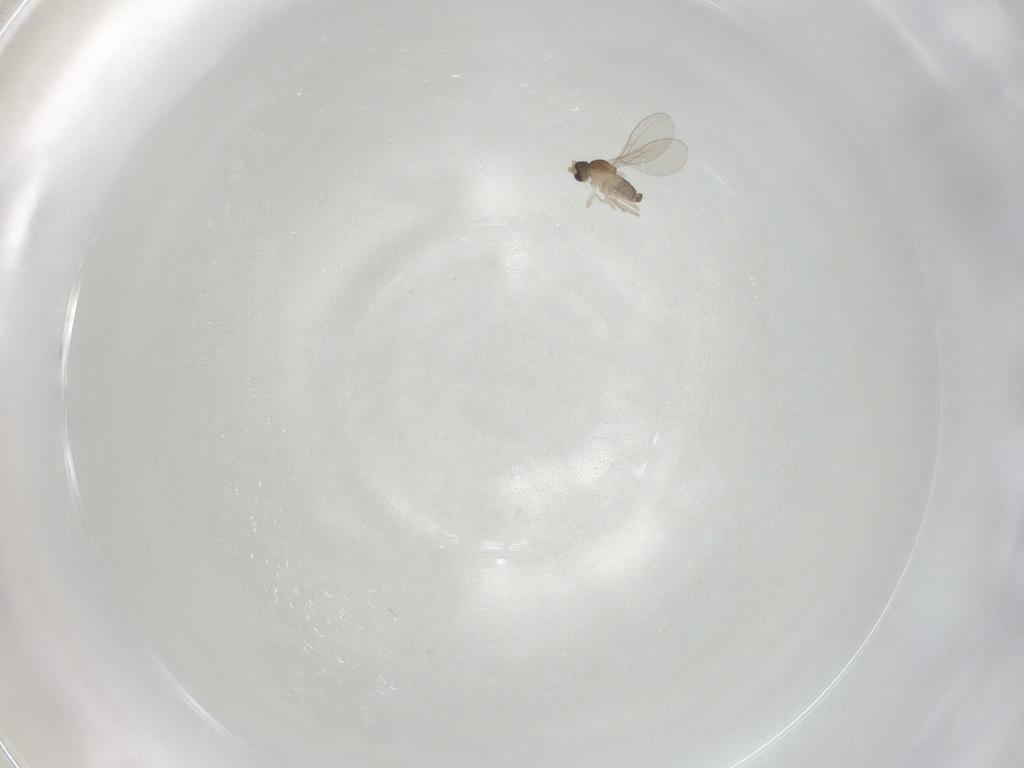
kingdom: Animalia
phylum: Arthropoda
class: Insecta
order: Diptera
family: Cecidomyiidae
